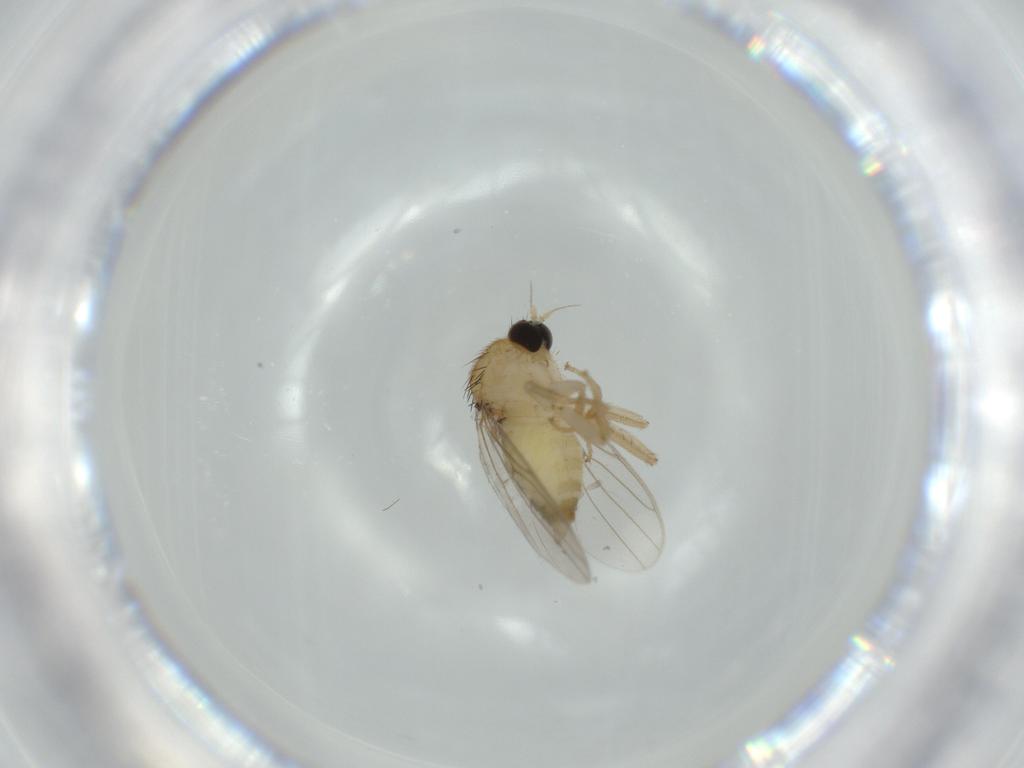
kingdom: Animalia
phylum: Arthropoda
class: Insecta
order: Diptera
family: Hybotidae
